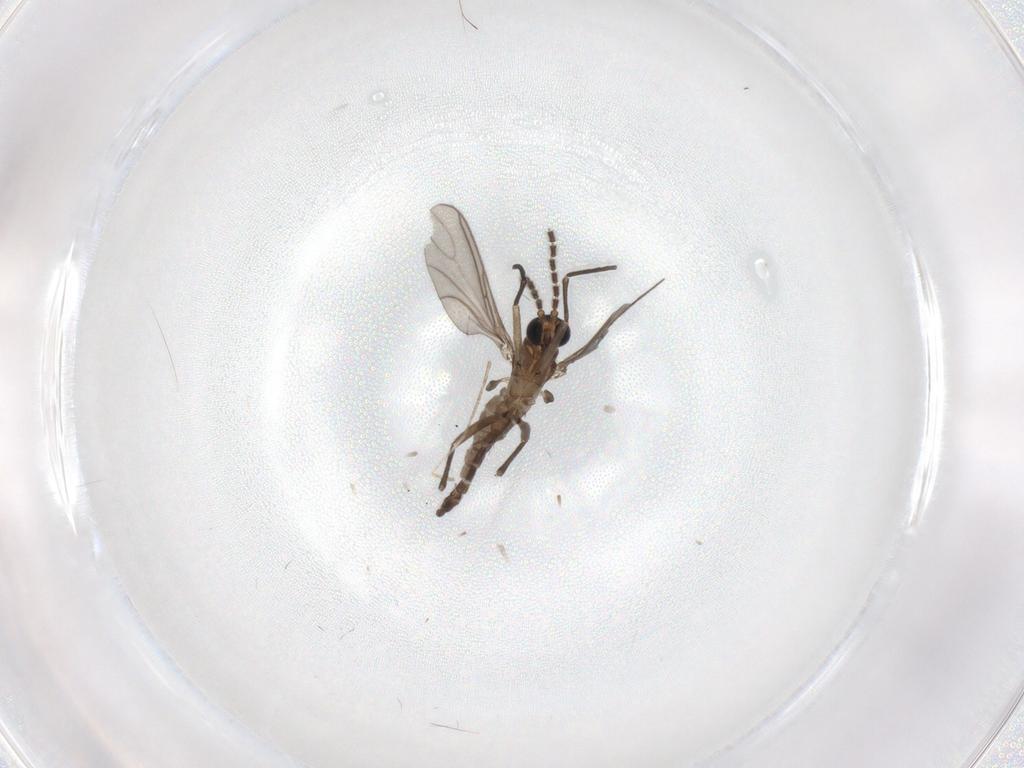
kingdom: Animalia
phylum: Arthropoda
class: Insecta
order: Diptera
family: Sciaridae
